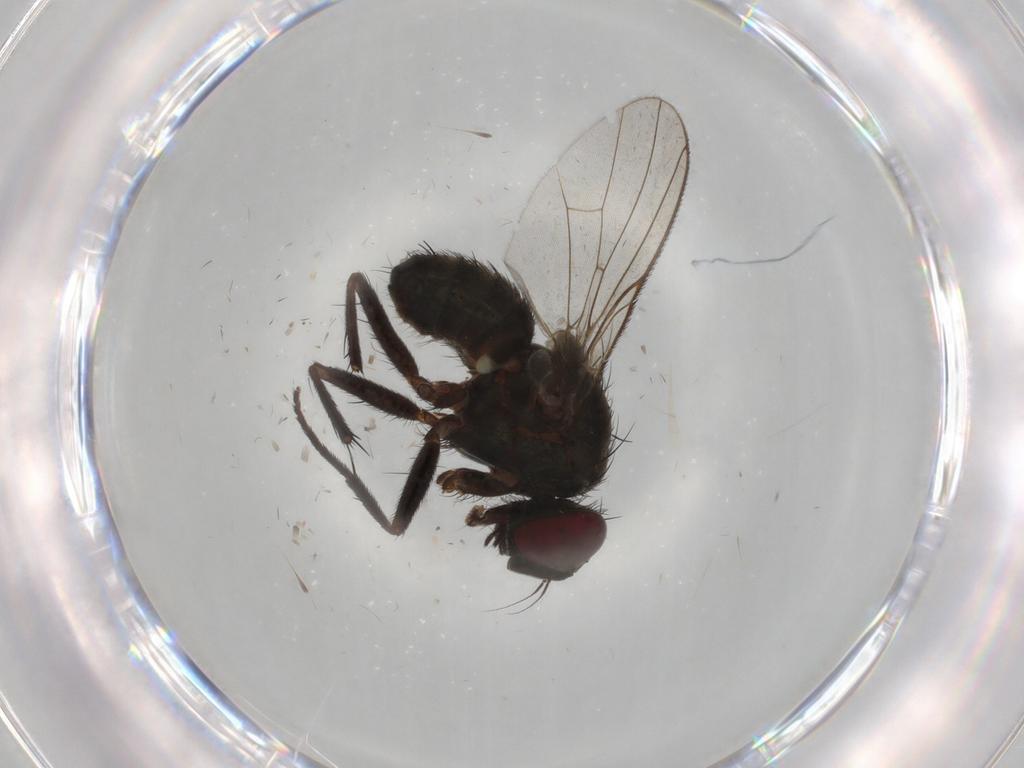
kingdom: Animalia
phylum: Arthropoda
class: Insecta
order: Diptera
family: Muscidae
